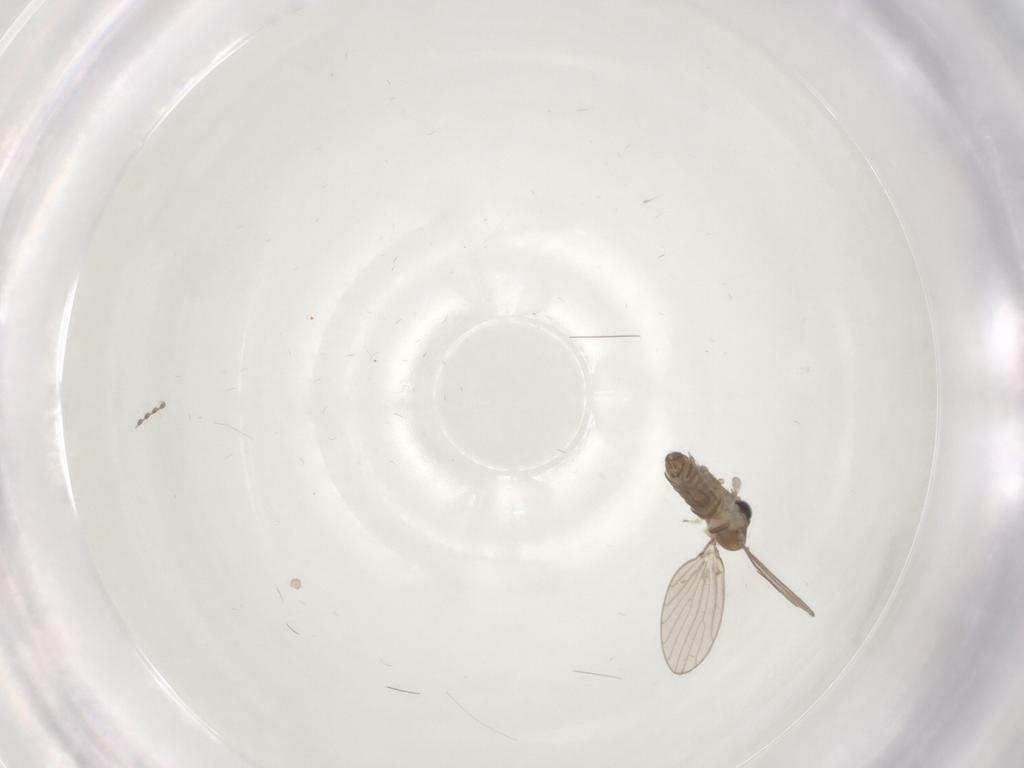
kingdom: Animalia
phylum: Arthropoda
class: Insecta
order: Diptera
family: Psychodidae
